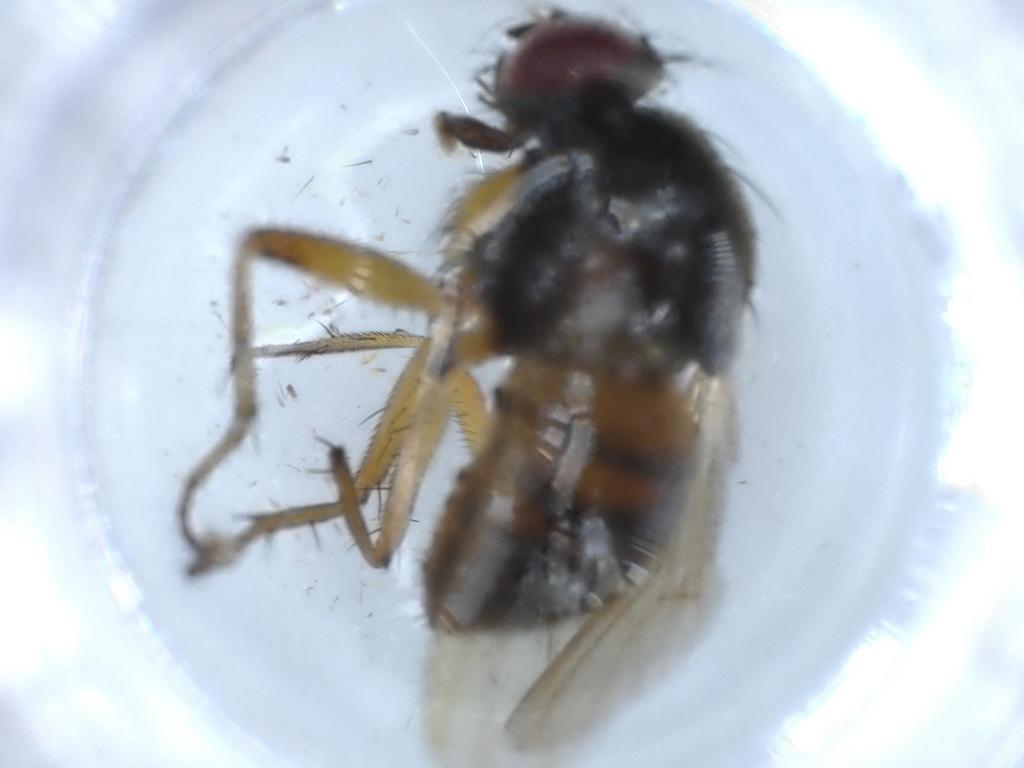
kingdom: Animalia
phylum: Arthropoda
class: Insecta
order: Diptera
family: Muscidae
